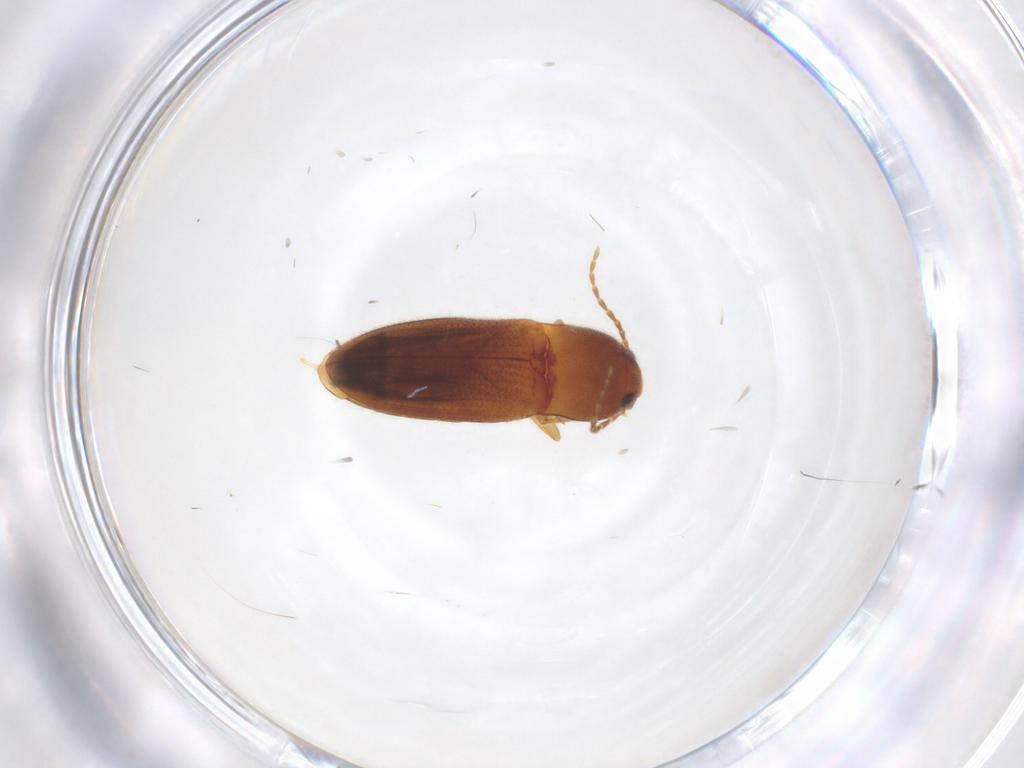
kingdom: Animalia
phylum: Arthropoda
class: Insecta
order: Coleoptera
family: Elateridae
